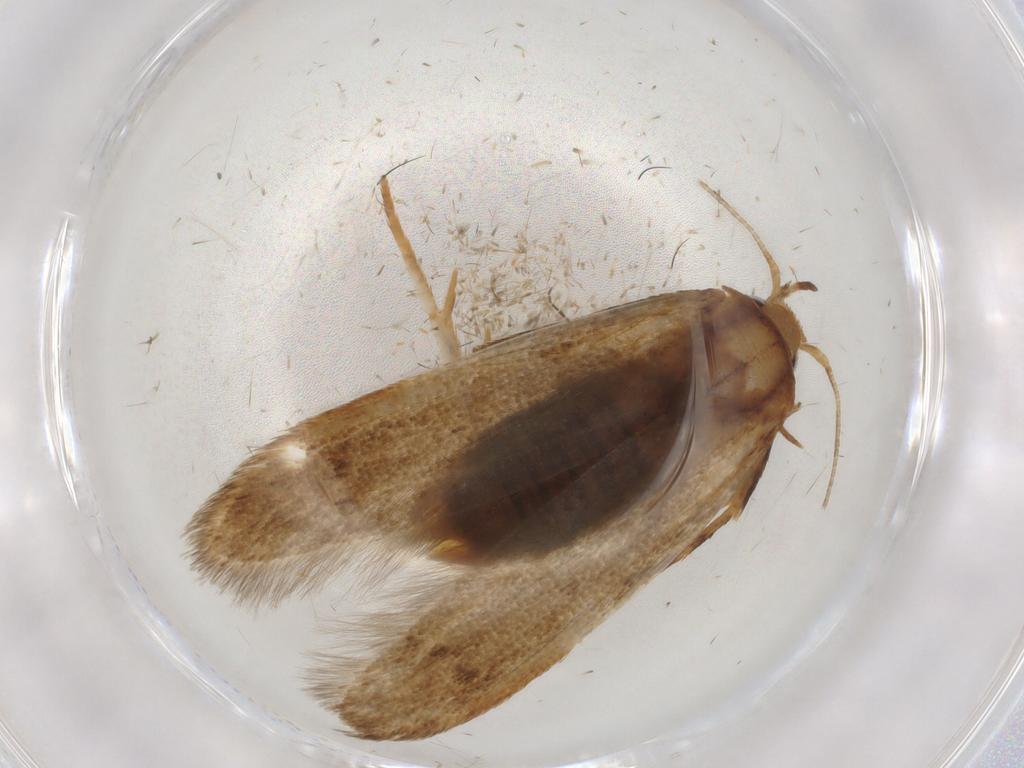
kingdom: Animalia
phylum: Arthropoda
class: Insecta
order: Lepidoptera
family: Blastobasidae
